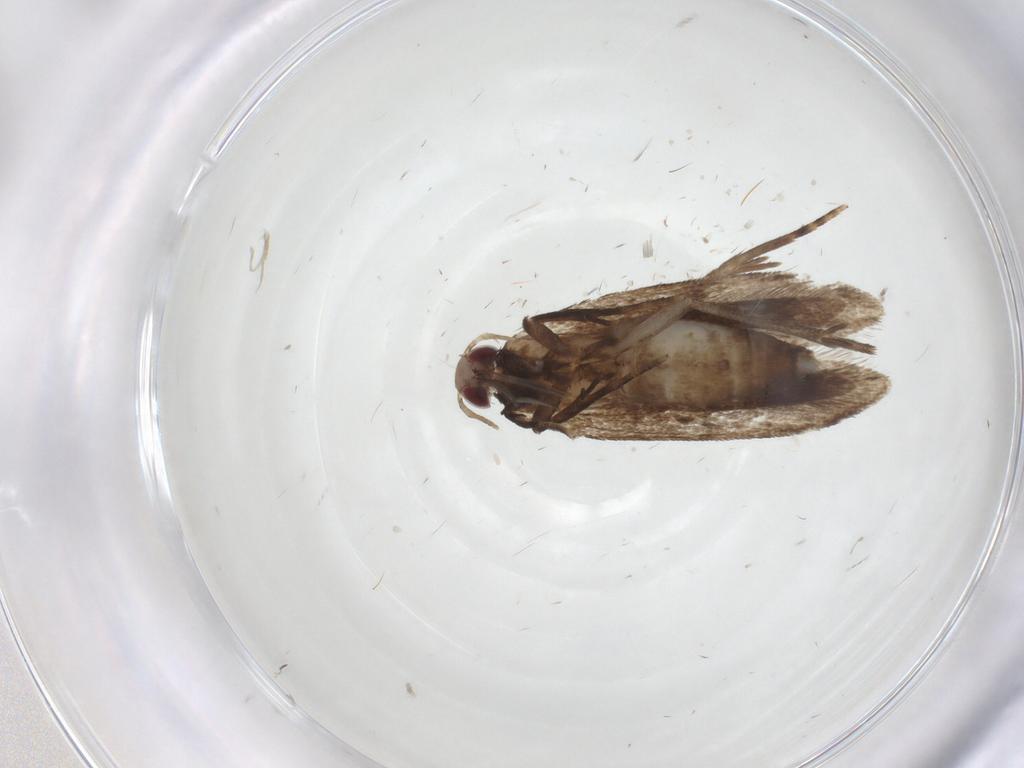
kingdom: Animalia
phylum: Arthropoda
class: Insecta
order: Lepidoptera
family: Gelechiidae
